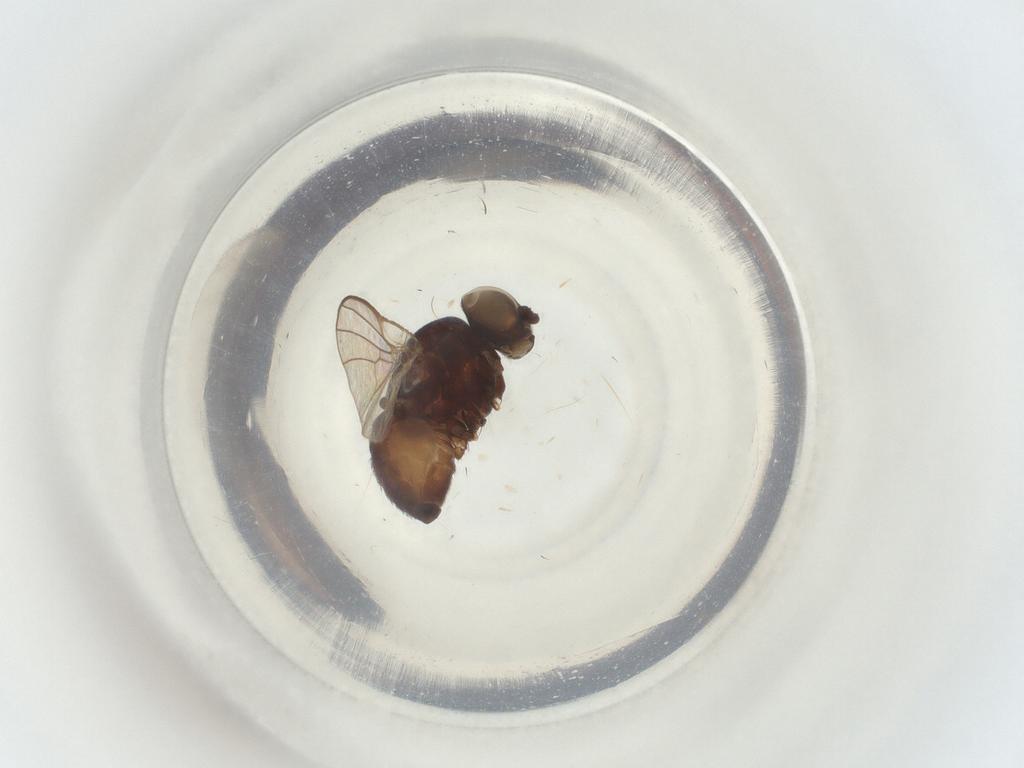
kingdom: Animalia
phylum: Arthropoda
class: Insecta
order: Diptera
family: Agromyzidae
